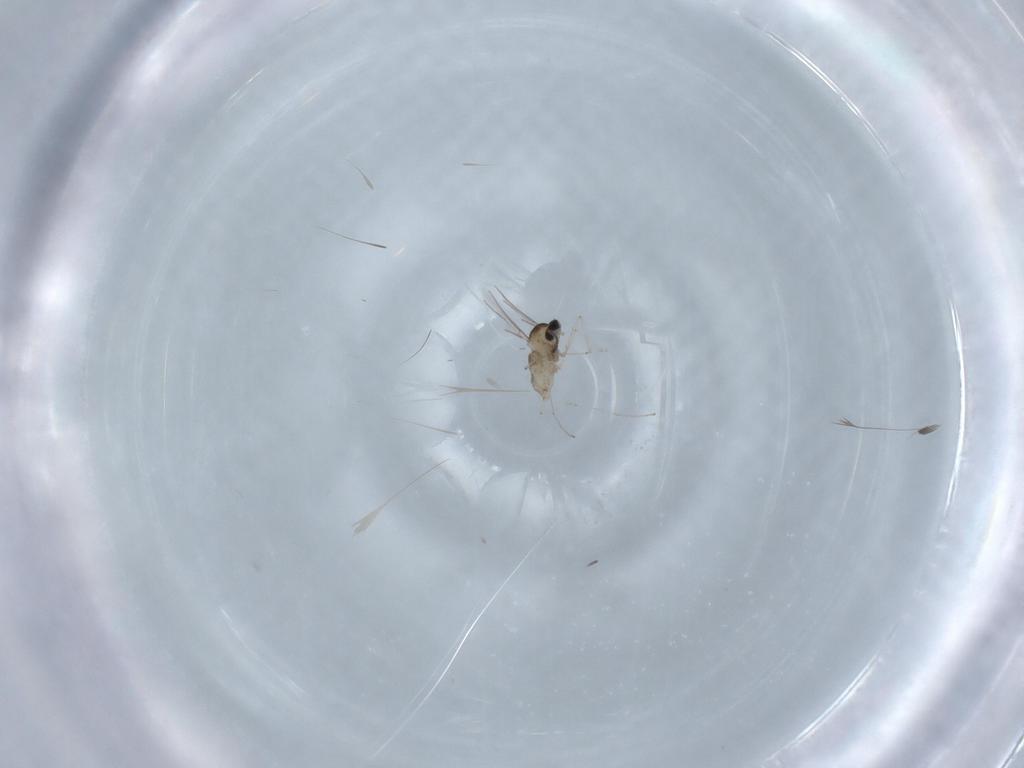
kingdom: Animalia
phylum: Arthropoda
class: Insecta
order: Diptera
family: Cecidomyiidae
